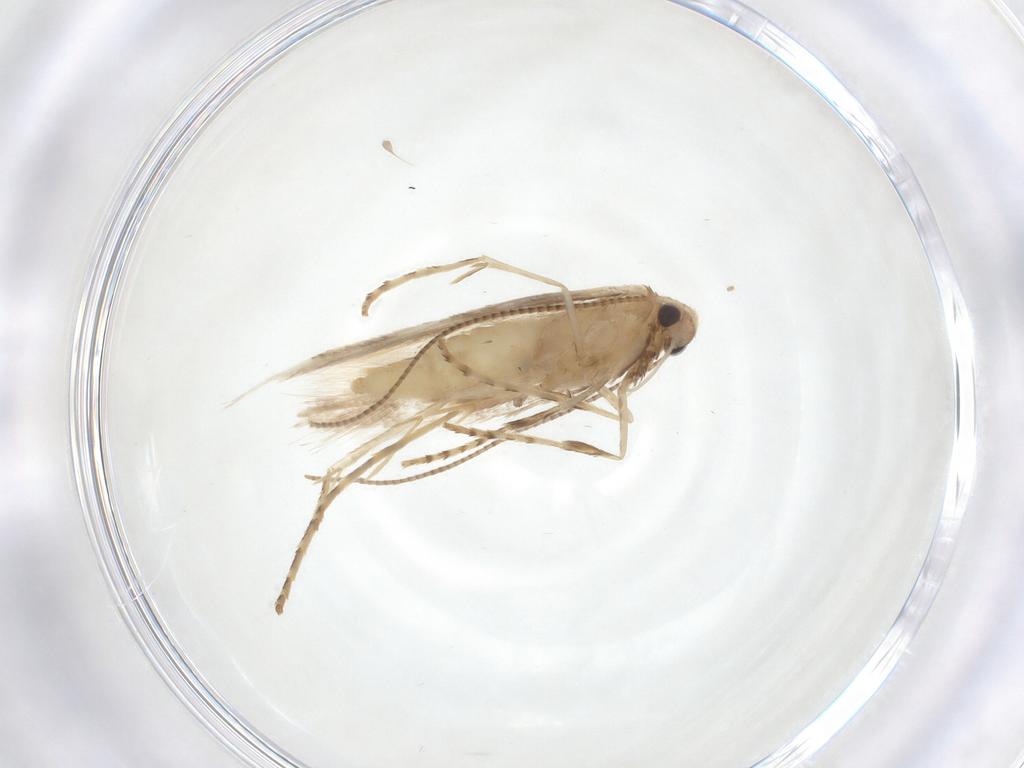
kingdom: Animalia
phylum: Arthropoda
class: Insecta
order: Lepidoptera
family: Gracillariidae
